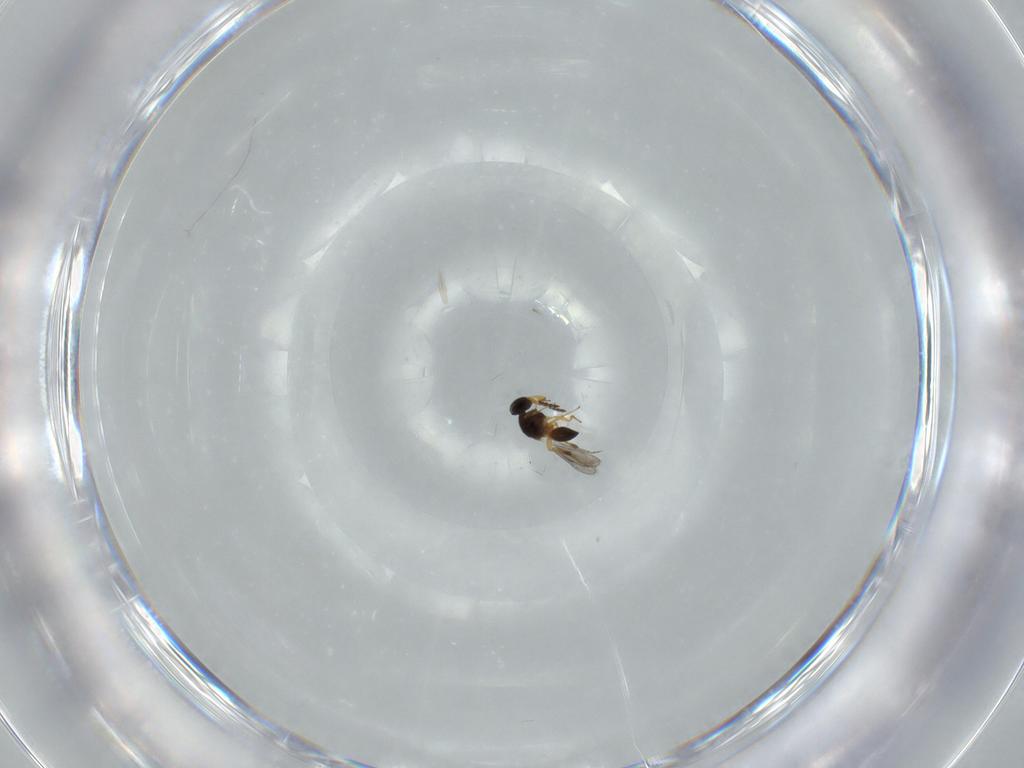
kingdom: Animalia
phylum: Arthropoda
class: Insecta
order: Hymenoptera
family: Platygastridae
